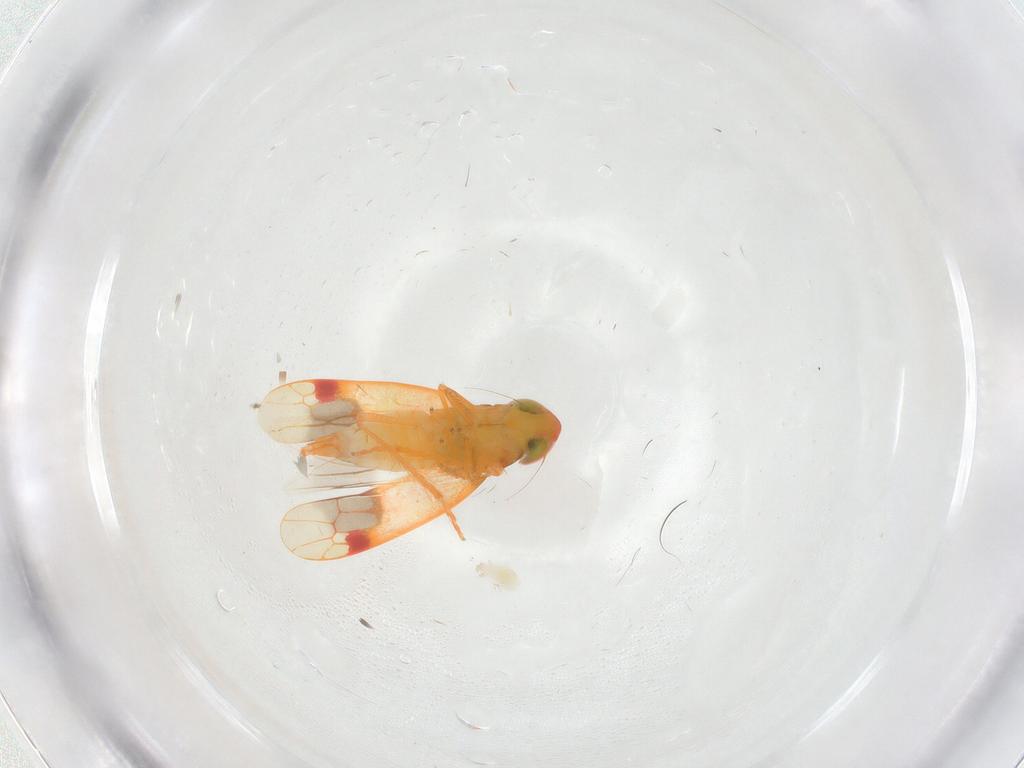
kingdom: Animalia
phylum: Arthropoda
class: Insecta
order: Hemiptera
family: Cicadellidae
